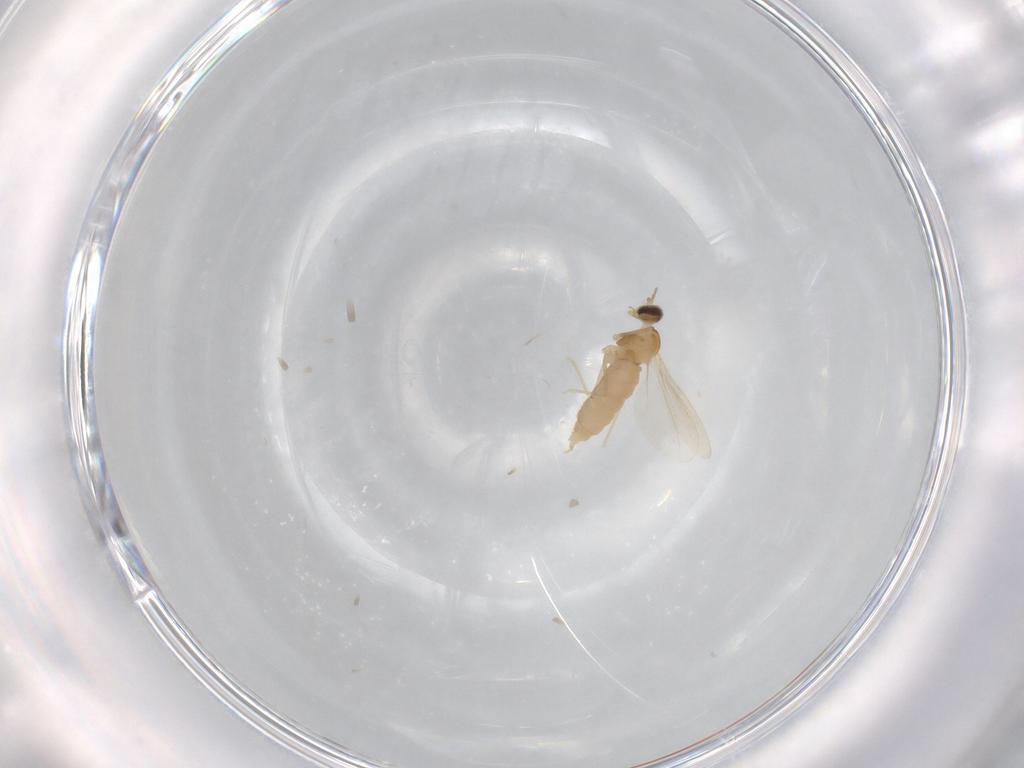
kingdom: Animalia
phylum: Arthropoda
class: Insecta
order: Diptera
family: Cecidomyiidae
